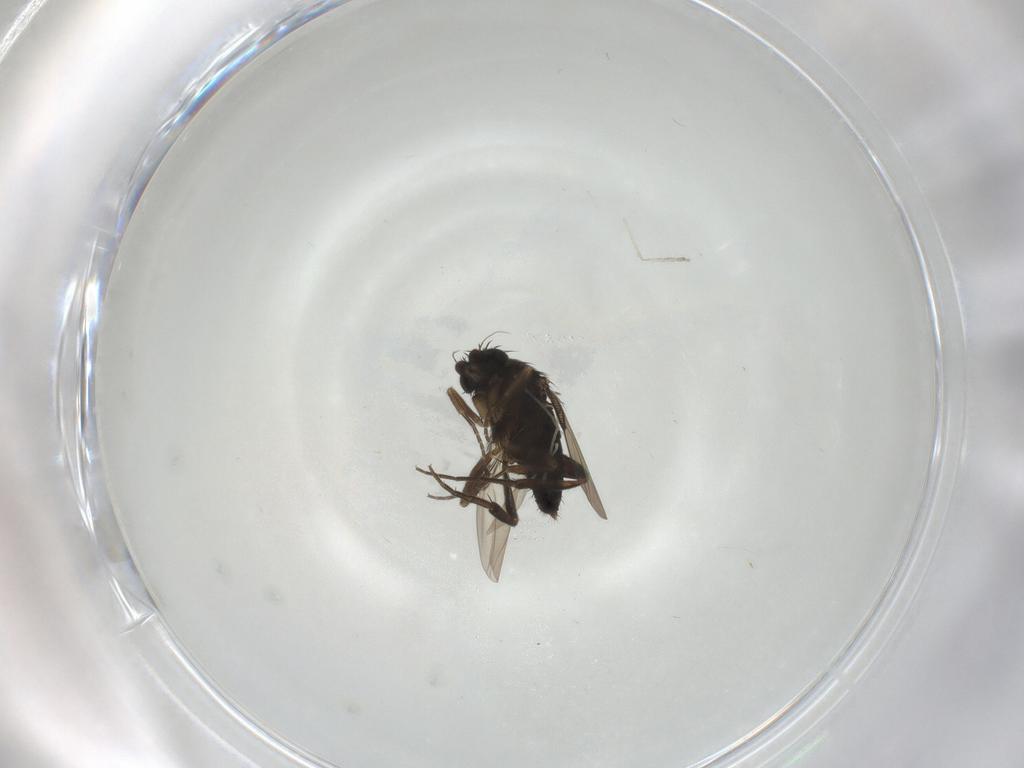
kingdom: Animalia
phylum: Arthropoda
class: Insecta
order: Diptera
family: Phoridae
